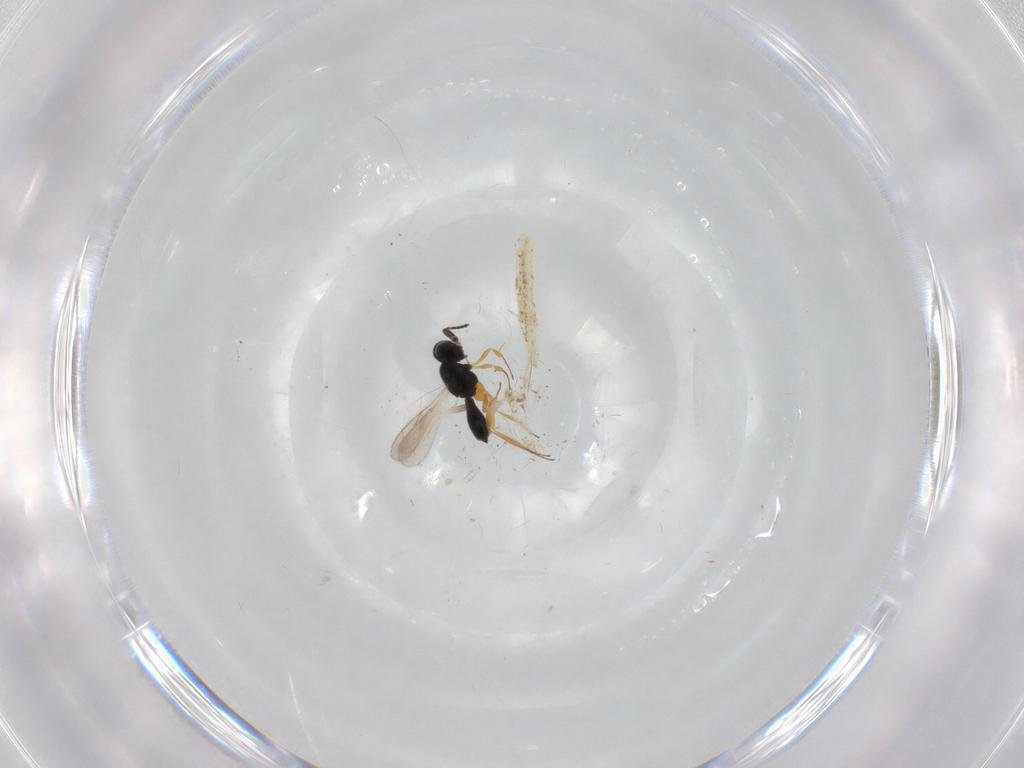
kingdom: Animalia
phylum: Arthropoda
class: Insecta
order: Hymenoptera
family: Scelionidae
